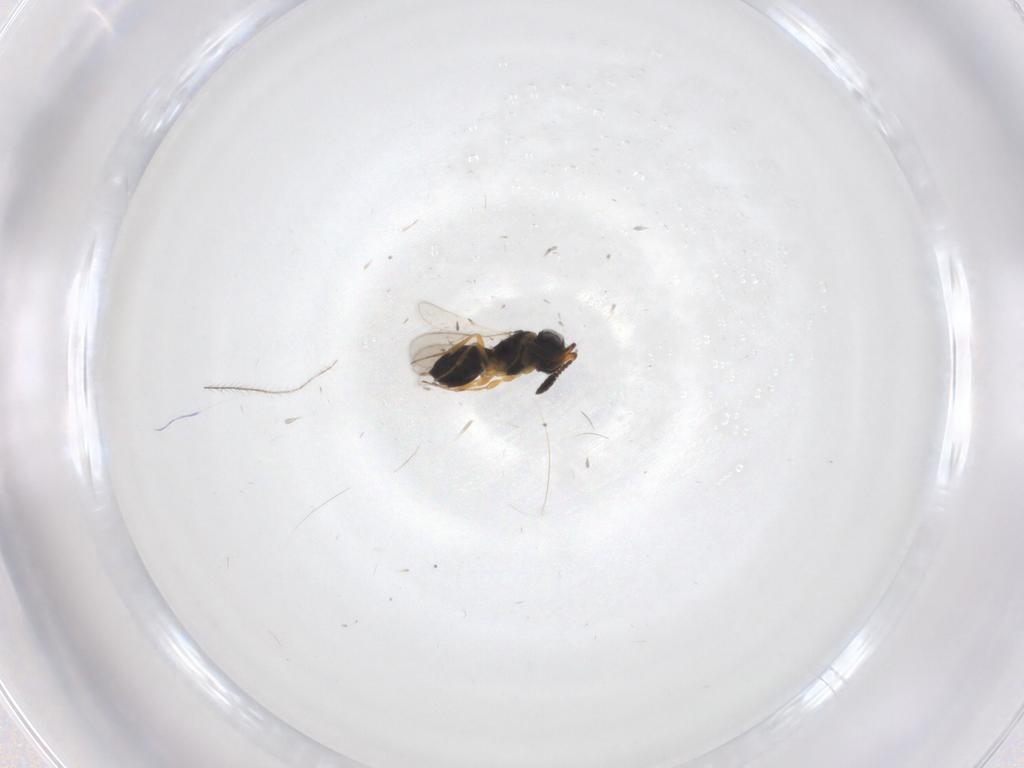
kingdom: Animalia
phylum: Arthropoda
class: Insecta
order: Hymenoptera
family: Scelionidae
